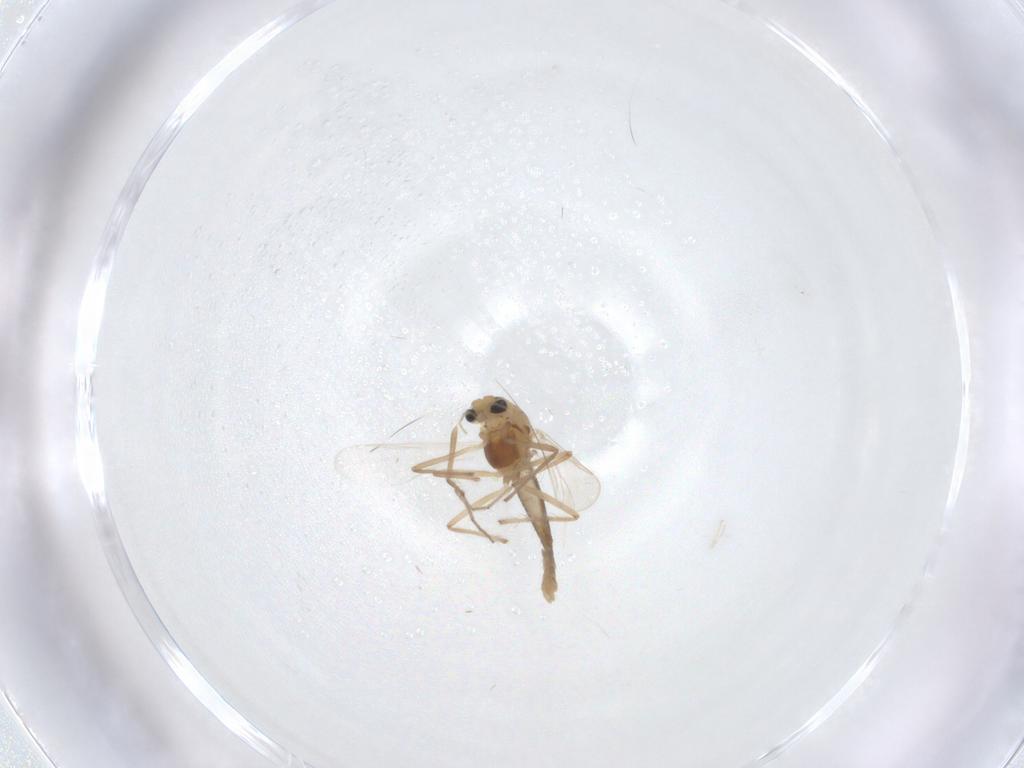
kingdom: Animalia
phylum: Arthropoda
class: Insecta
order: Diptera
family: Chironomidae
